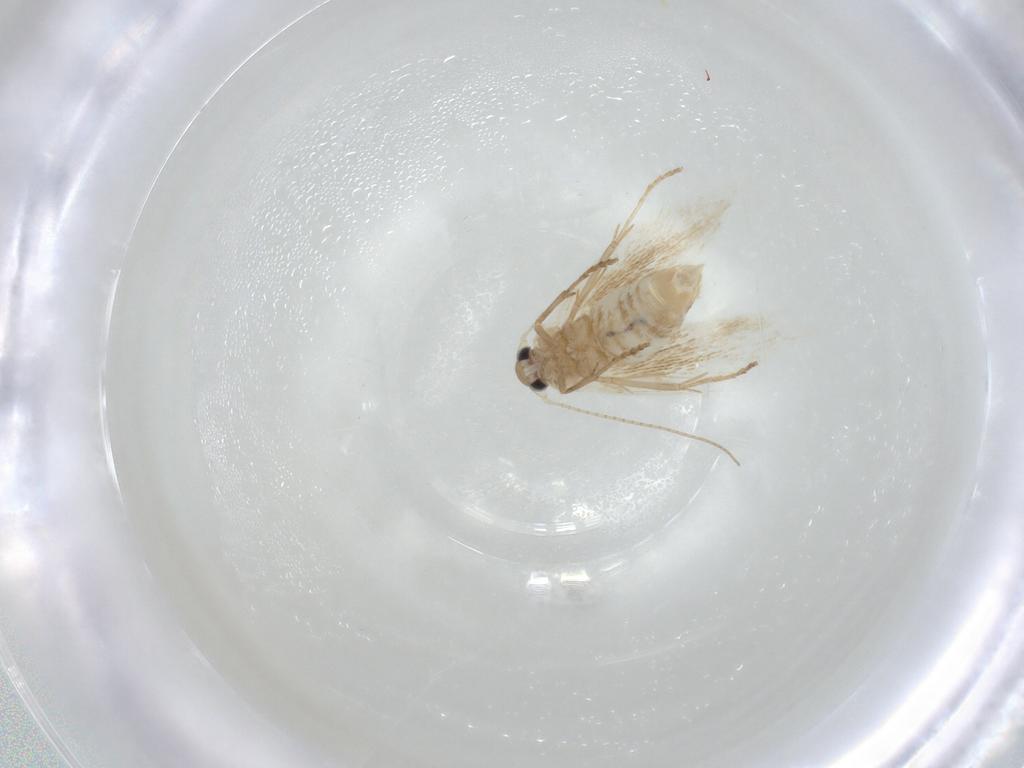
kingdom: Animalia
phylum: Arthropoda
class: Insecta
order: Lepidoptera
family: Bucculatricidae
